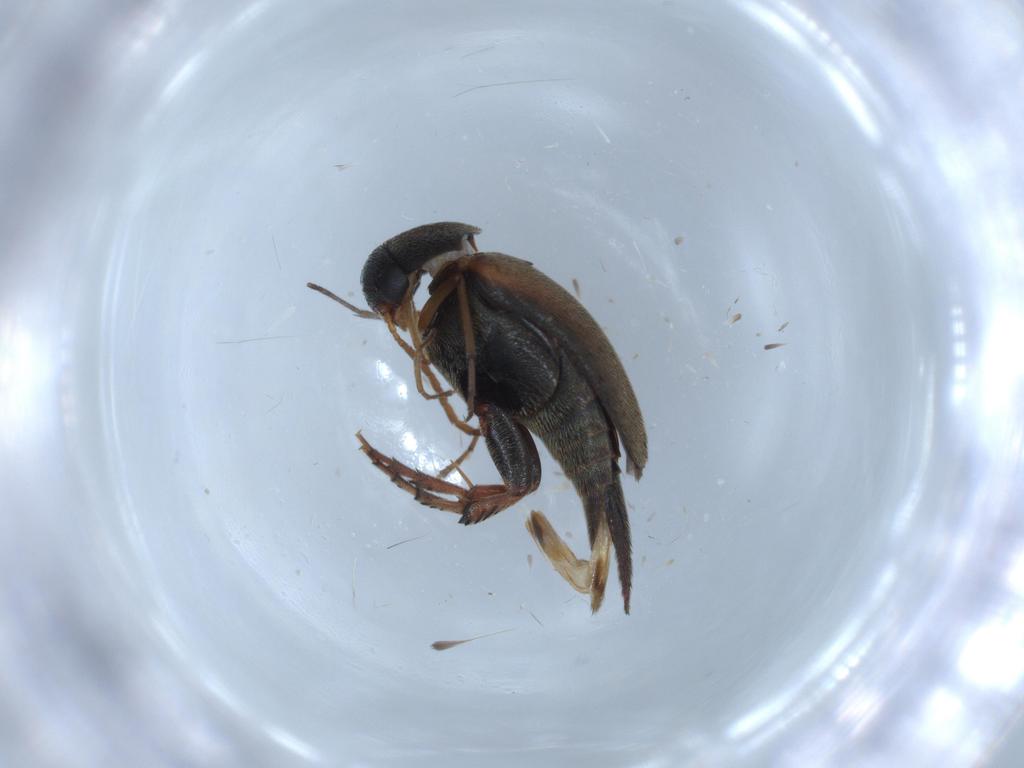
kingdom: Animalia
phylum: Arthropoda
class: Insecta
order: Coleoptera
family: Mordellidae
